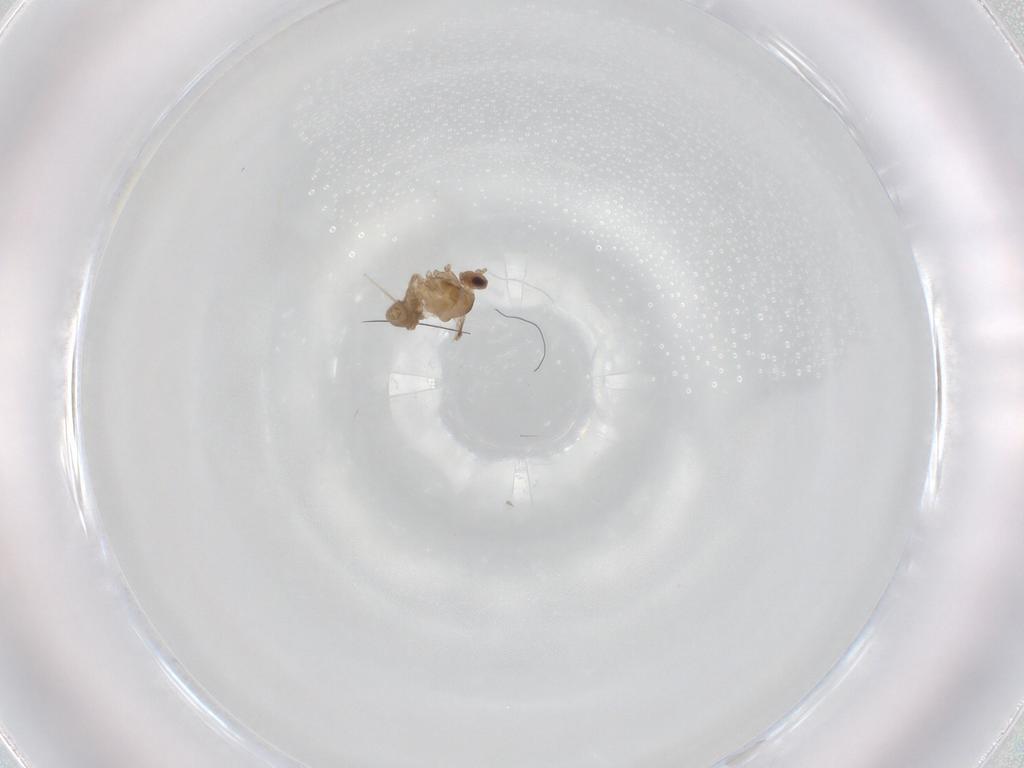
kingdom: Animalia
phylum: Arthropoda
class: Insecta
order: Diptera
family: Cecidomyiidae
